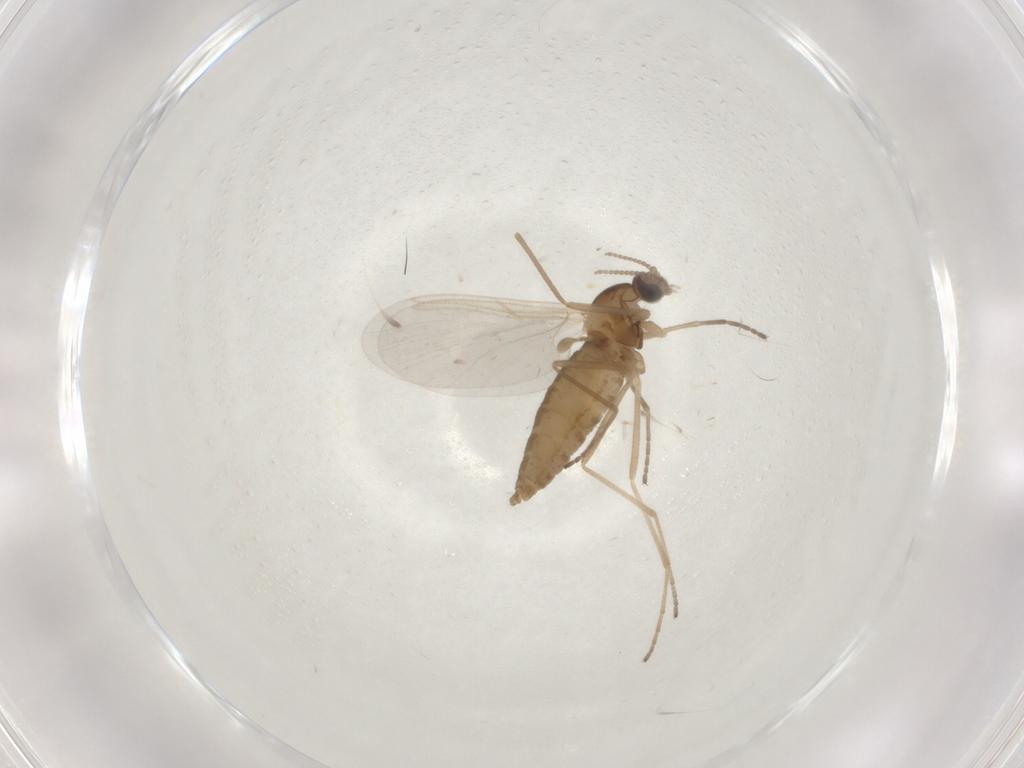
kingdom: Animalia
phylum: Arthropoda
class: Insecta
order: Diptera
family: Cecidomyiidae
